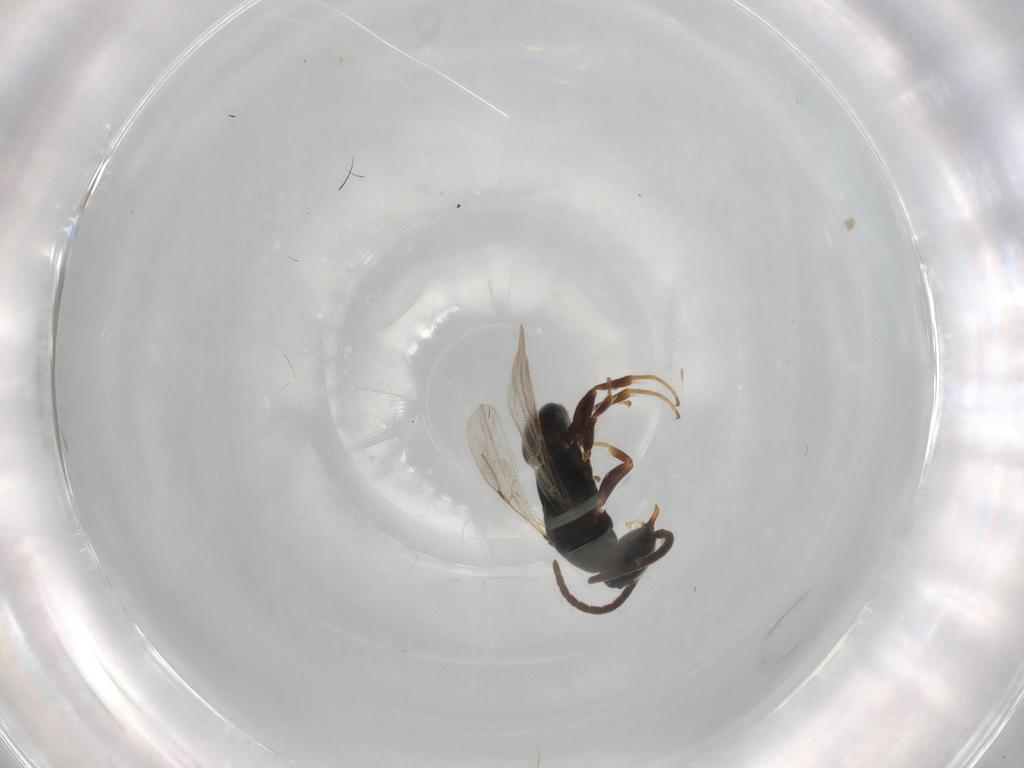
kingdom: Animalia
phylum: Arthropoda
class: Insecta
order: Hymenoptera
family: Bethylidae
